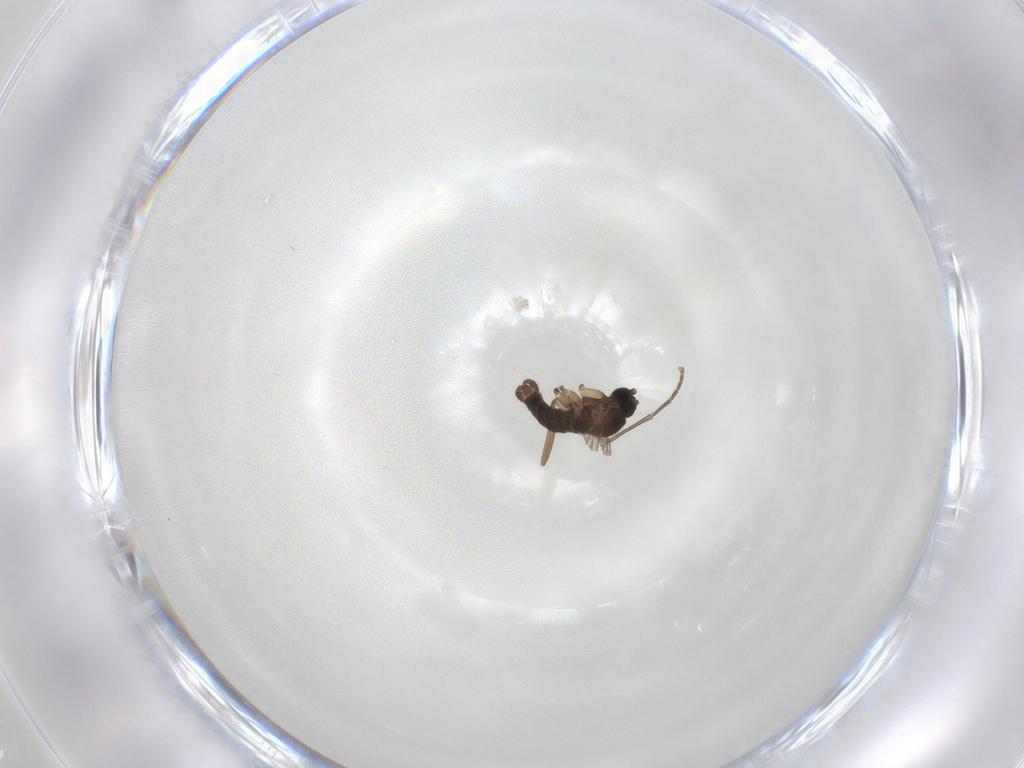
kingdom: Animalia
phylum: Arthropoda
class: Insecta
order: Diptera
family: Sciaridae
